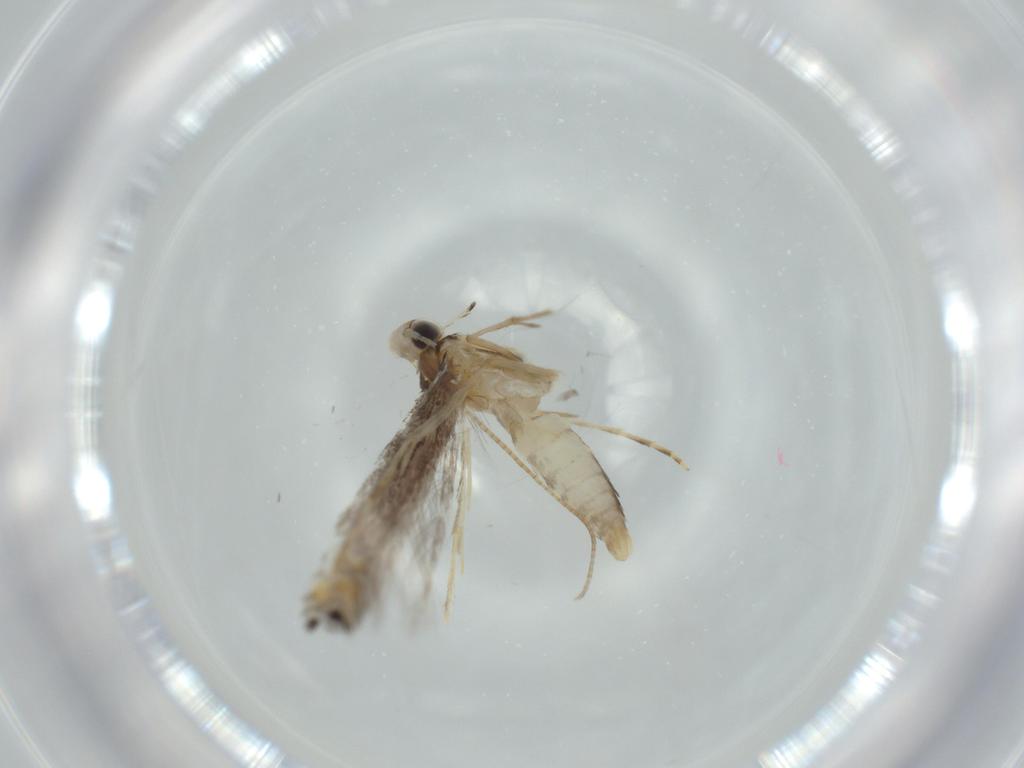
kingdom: Animalia
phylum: Arthropoda
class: Insecta
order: Lepidoptera
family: Gracillariidae
